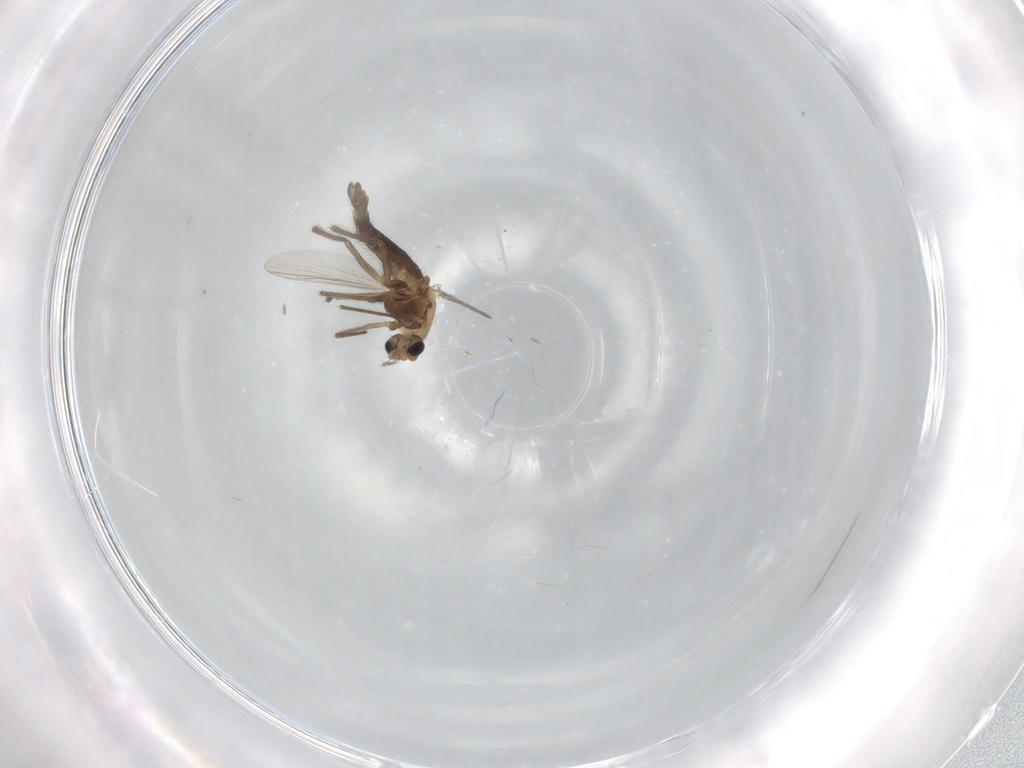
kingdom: Animalia
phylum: Arthropoda
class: Insecta
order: Diptera
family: Chironomidae
